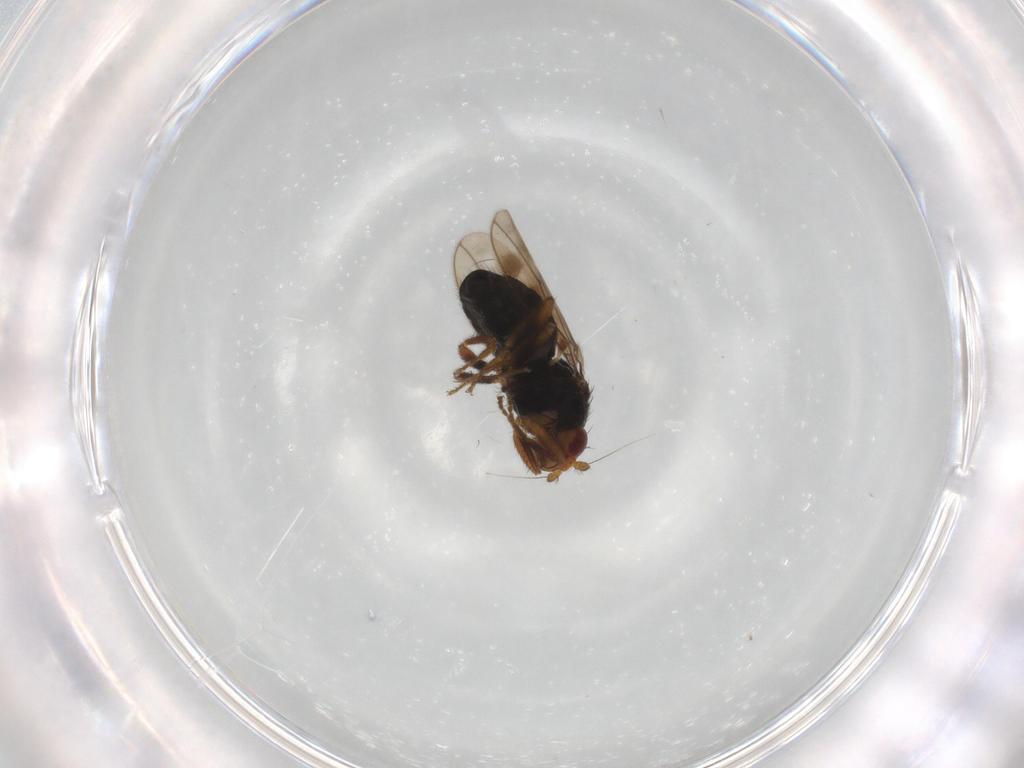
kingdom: Animalia
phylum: Arthropoda
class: Insecta
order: Diptera
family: Sphaeroceridae
